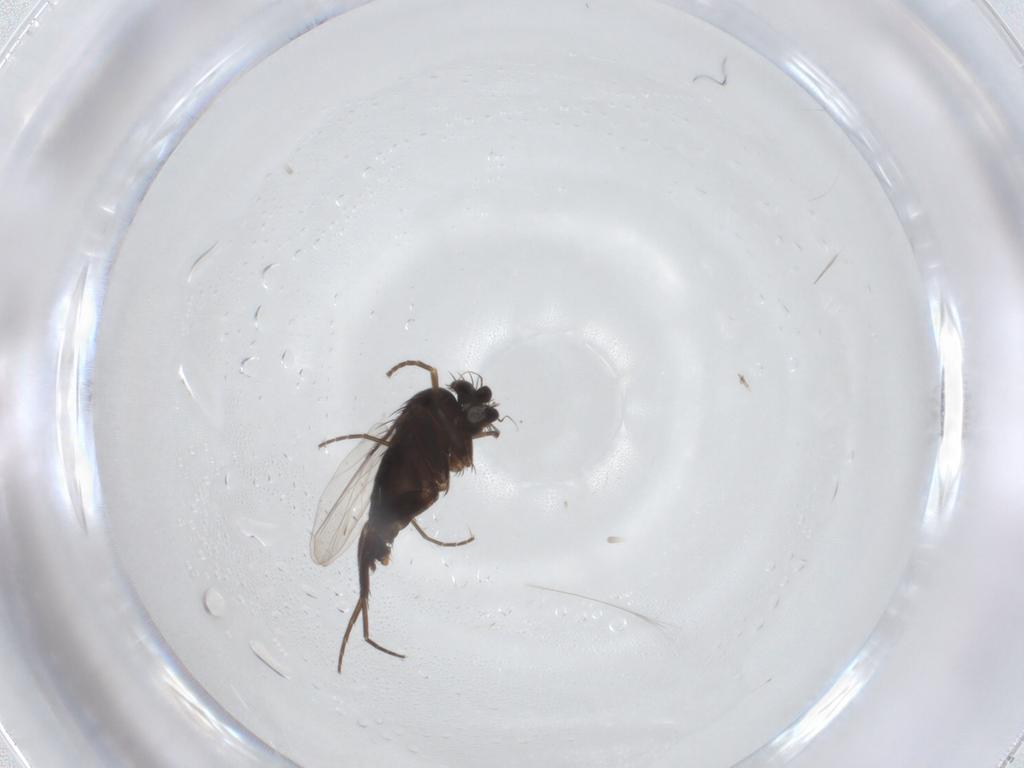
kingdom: Animalia
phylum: Arthropoda
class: Insecta
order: Diptera
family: Phoridae
